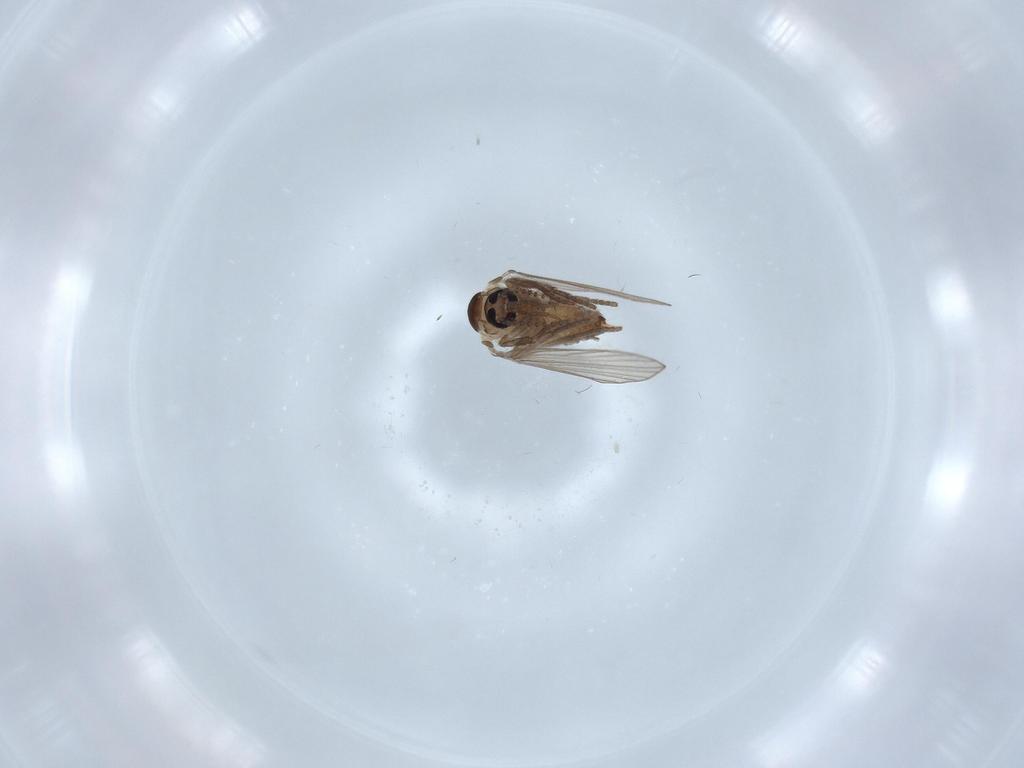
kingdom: Animalia
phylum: Arthropoda
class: Insecta
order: Diptera
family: Psychodidae
